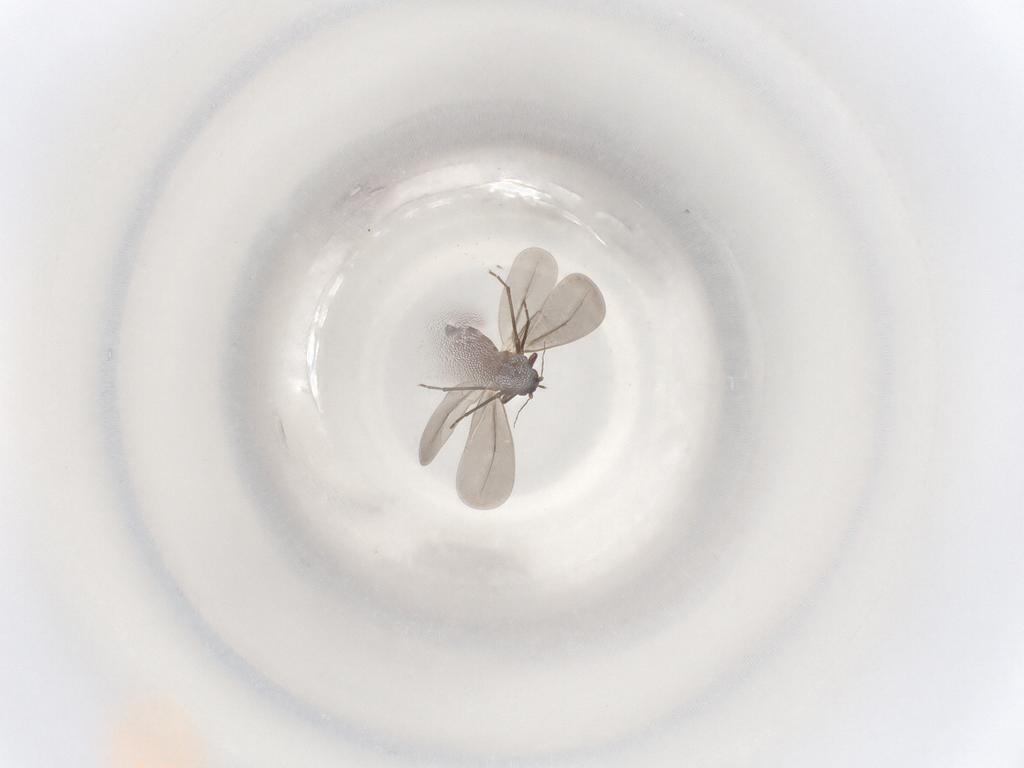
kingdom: Animalia
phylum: Arthropoda
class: Insecta
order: Hemiptera
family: Aleyrodidae
